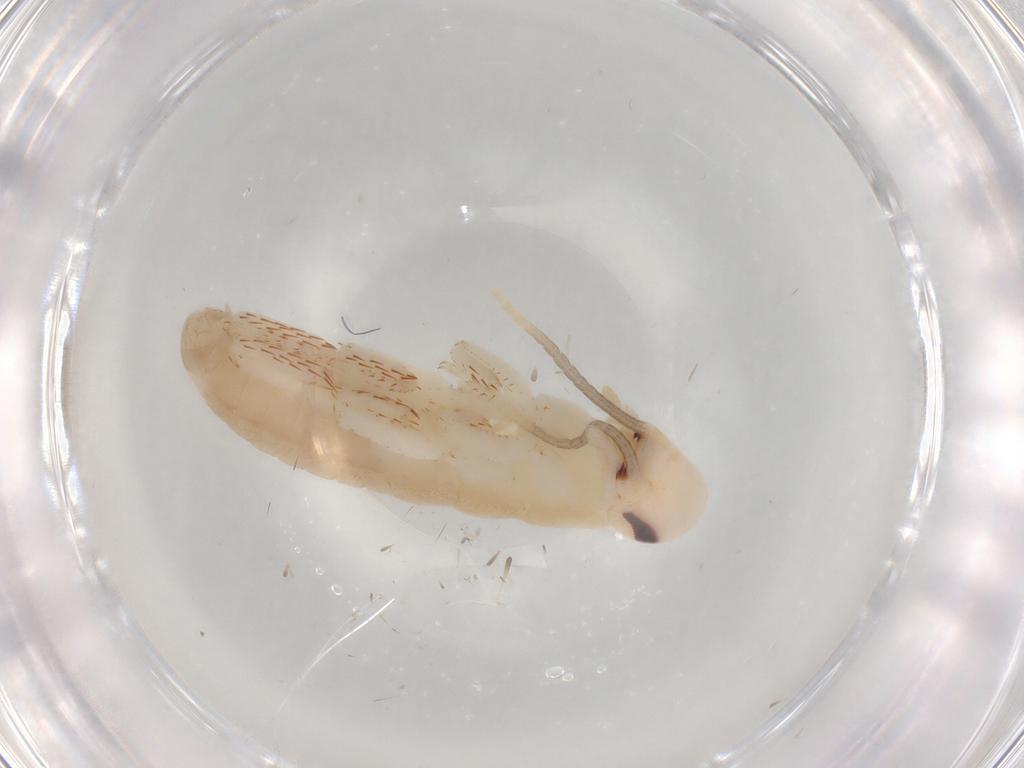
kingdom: Animalia
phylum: Arthropoda
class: Insecta
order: Blattodea
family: Blaberidae
